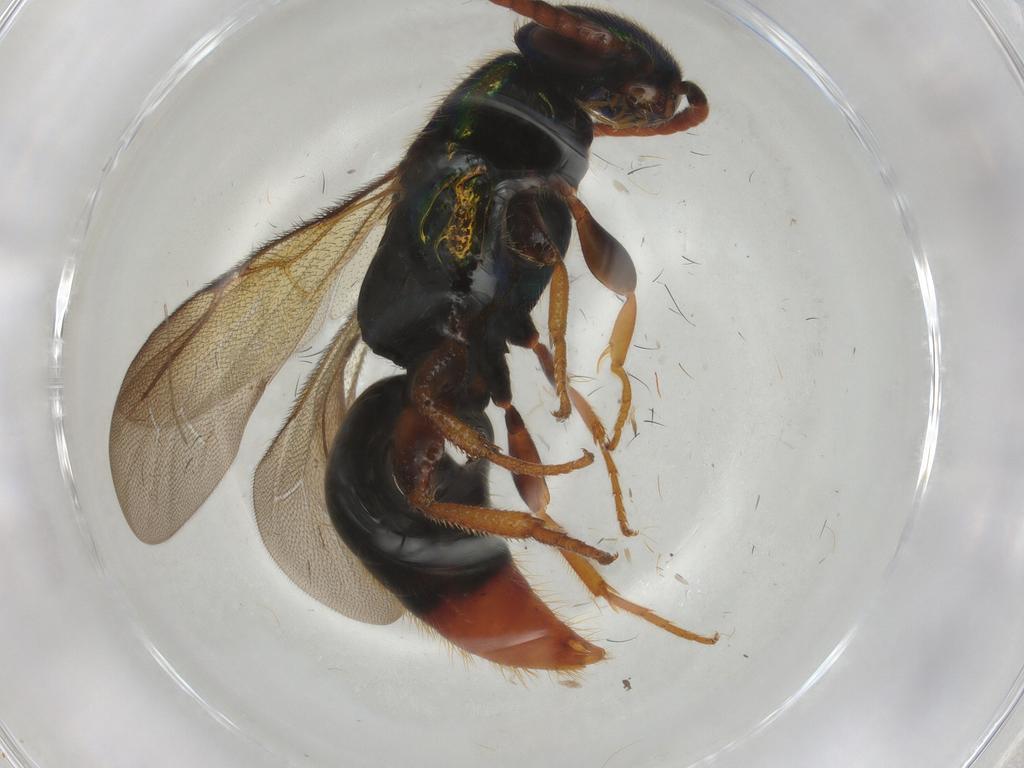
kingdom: Animalia
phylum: Arthropoda
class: Insecta
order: Hymenoptera
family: Bethylidae
